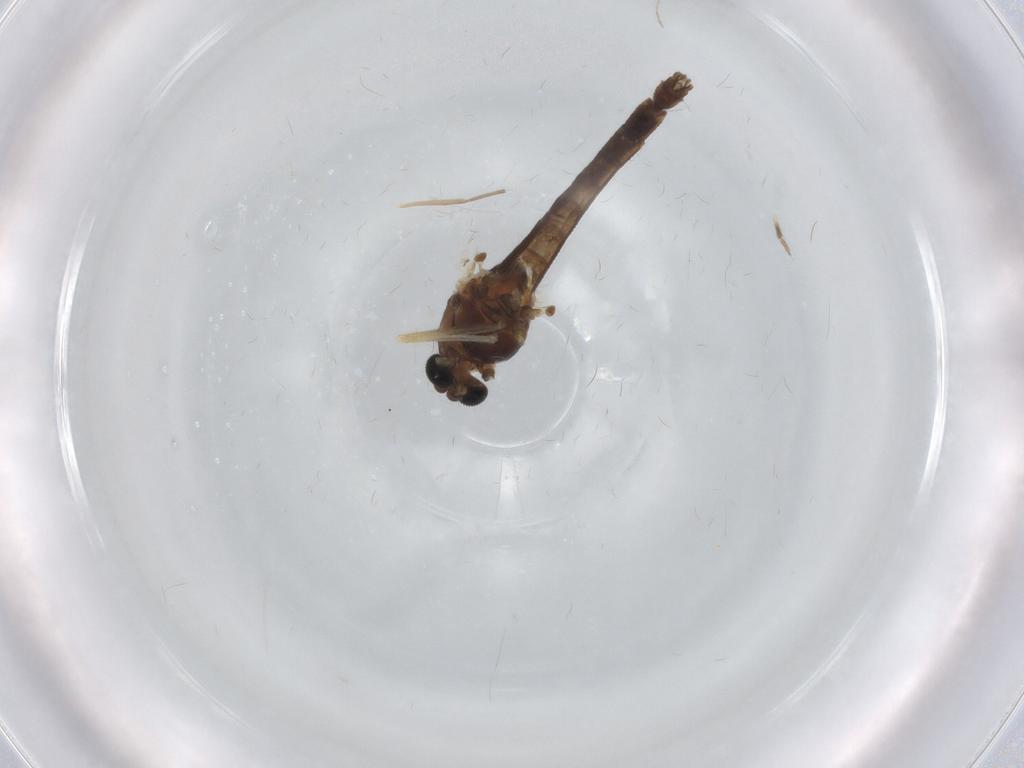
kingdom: Animalia
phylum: Arthropoda
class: Insecta
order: Diptera
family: Chironomidae
